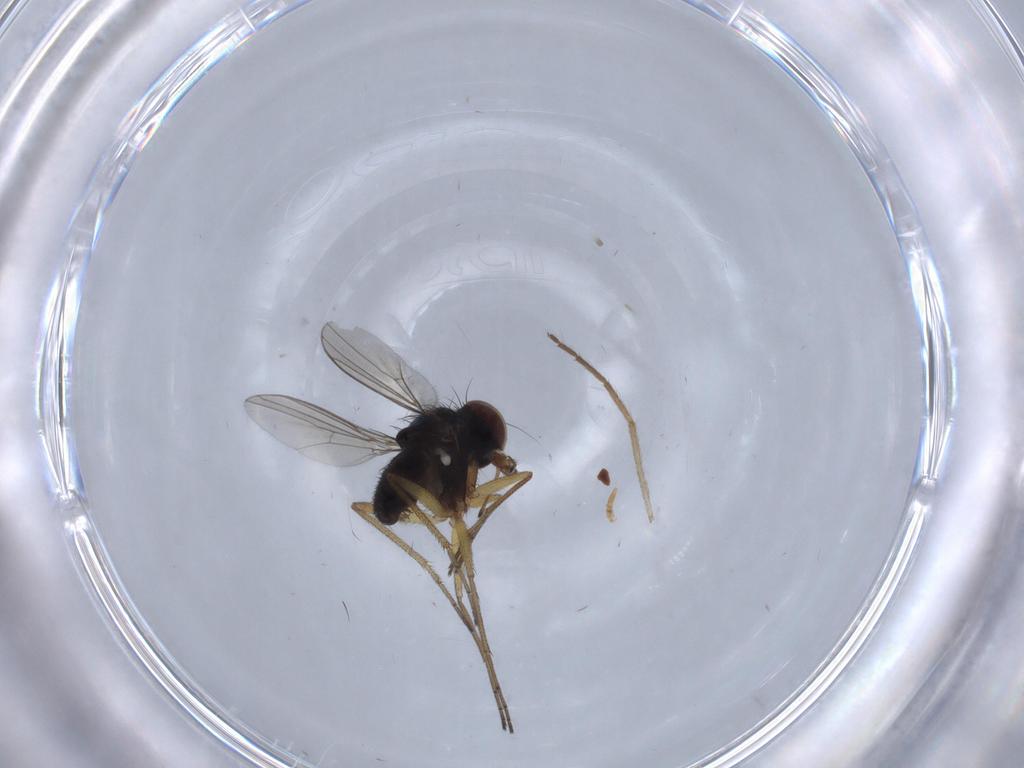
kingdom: Animalia
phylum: Arthropoda
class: Insecta
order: Diptera
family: Dolichopodidae
